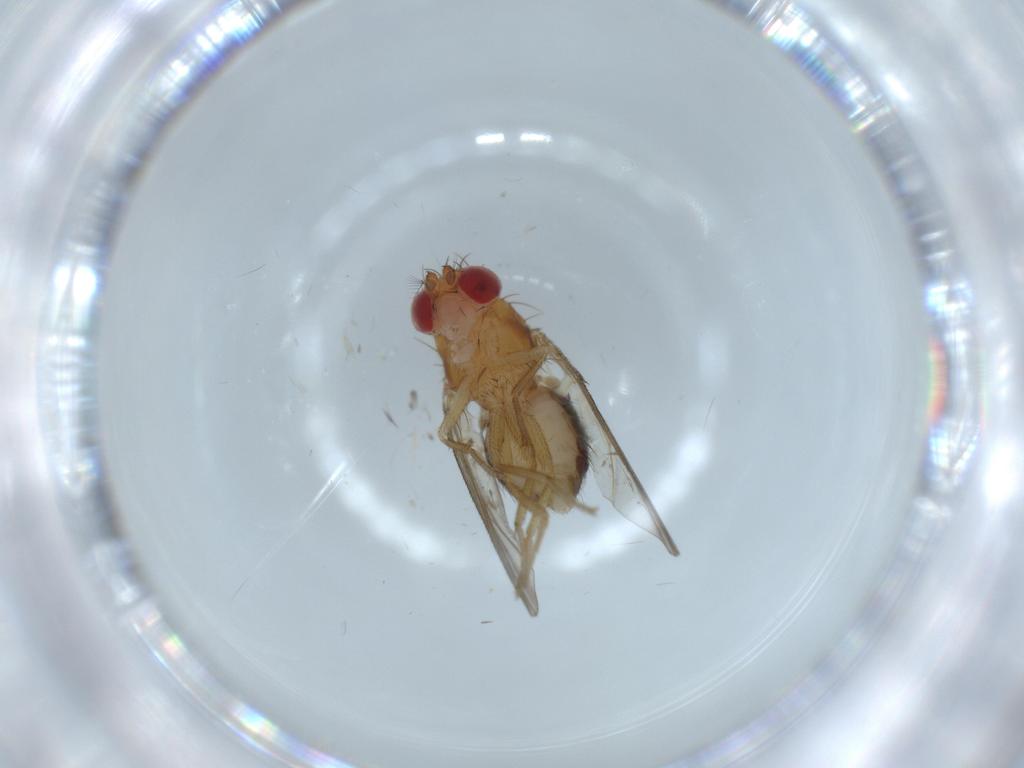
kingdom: Animalia
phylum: Arthropoda
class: Insecta
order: Diptera
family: Drosophilidae
